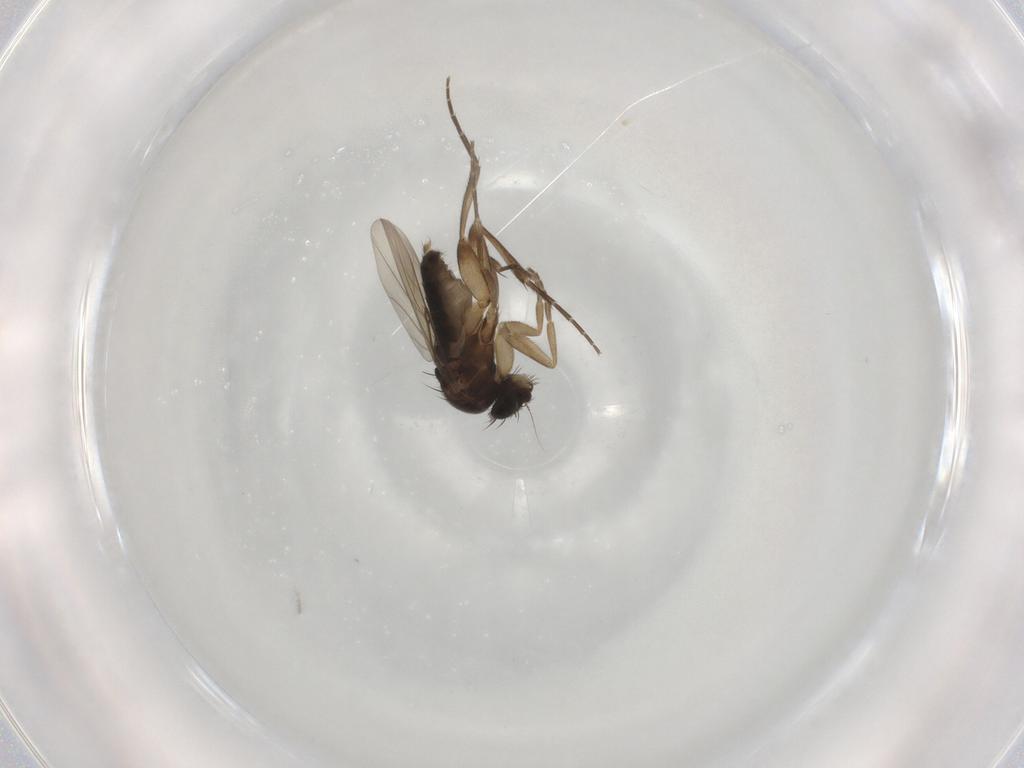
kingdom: Animalia
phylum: Arthropoda
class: Insecta
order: Diptera
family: Phoridae
